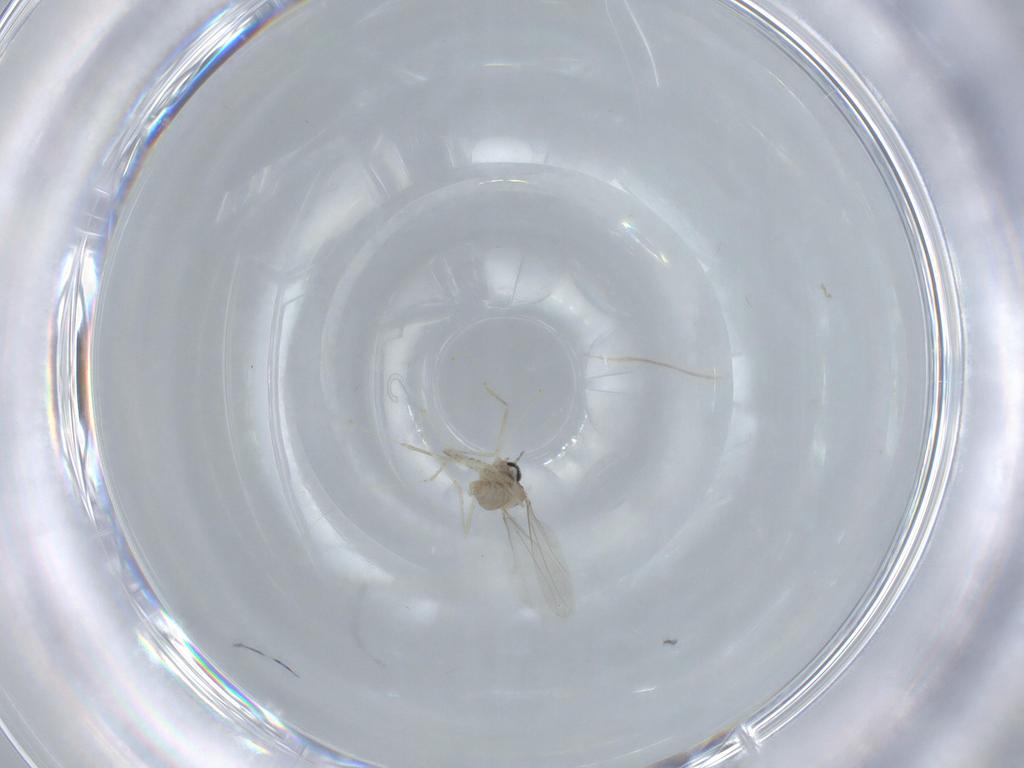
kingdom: Animalia
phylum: Arthropoda
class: Insecta
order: Diptera
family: Cecidomyiidae
